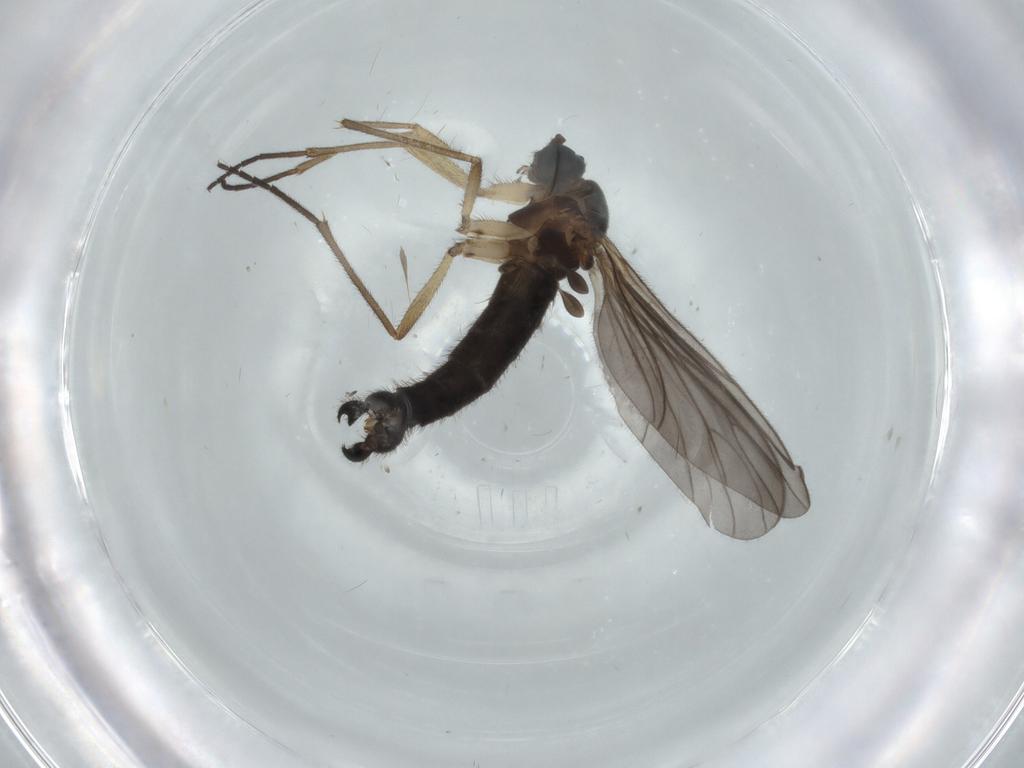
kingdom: Animalia
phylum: Arthropoda
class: Insecta
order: Diptera
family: Sciaridae
